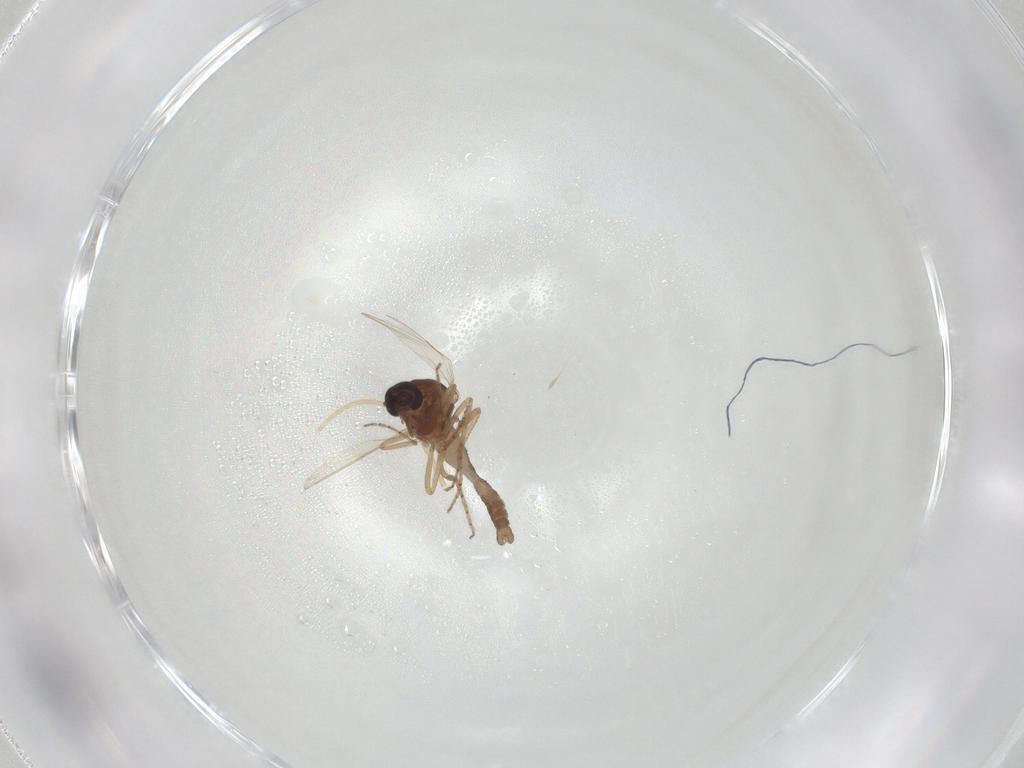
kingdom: Animalia
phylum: Arthropoda
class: Insecta
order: Diptera
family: Ceratopogonidae
